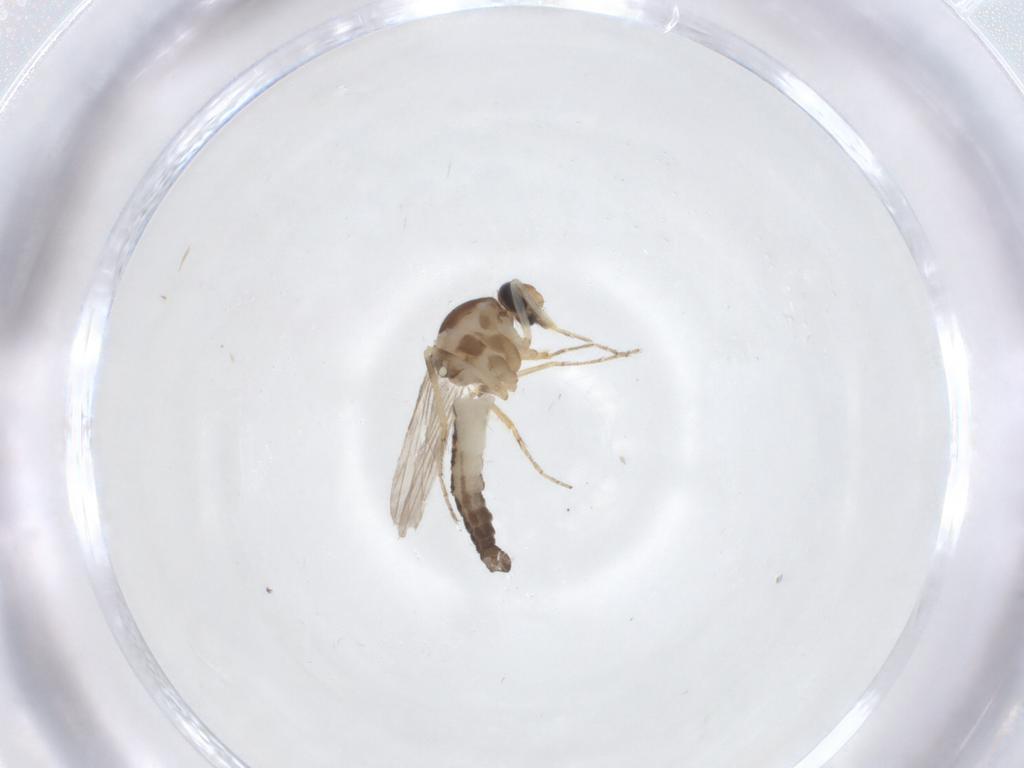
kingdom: Animalia
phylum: Arthropoda
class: Insecta
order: Diptera
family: Ceratopogonidae
